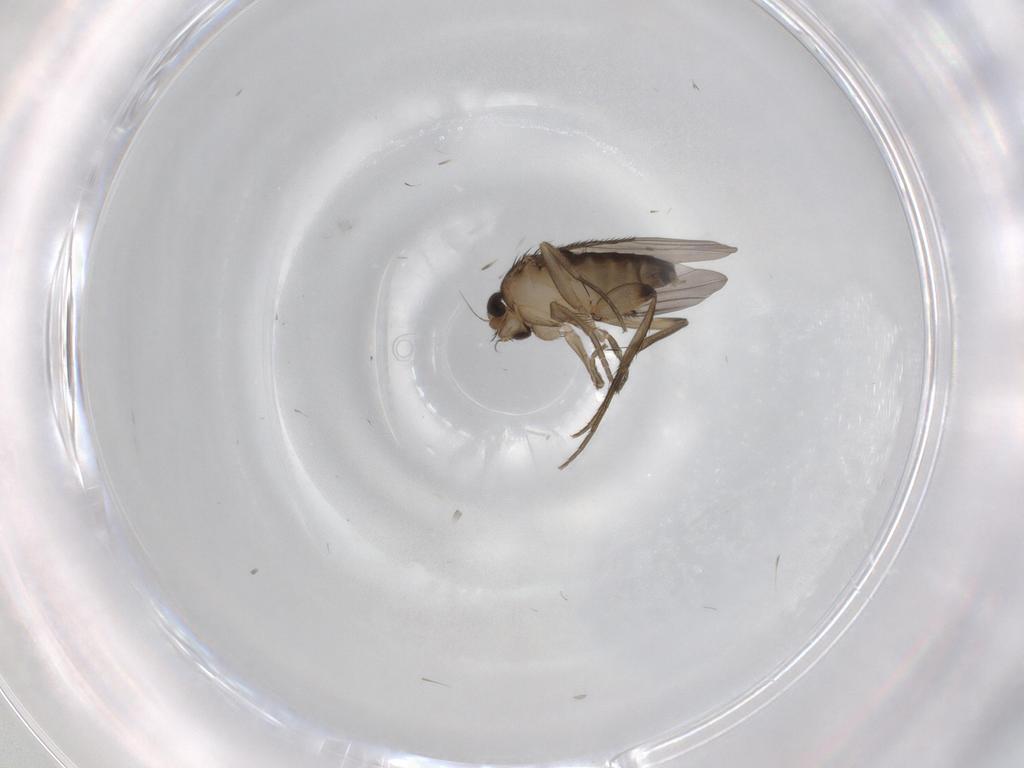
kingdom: Animalia
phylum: Arthropoda
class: Insecta
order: Diptera
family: Phoridae
